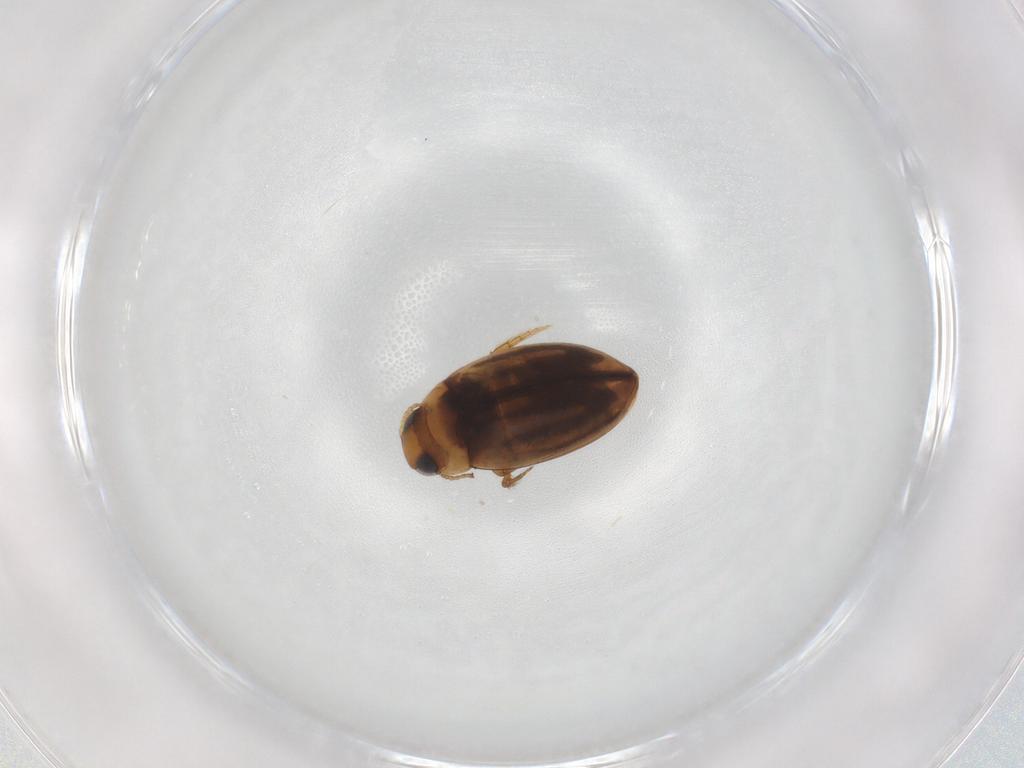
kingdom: Animalia
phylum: Arthropoda
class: Insecta
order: Coleoptera
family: Dytiscidae
